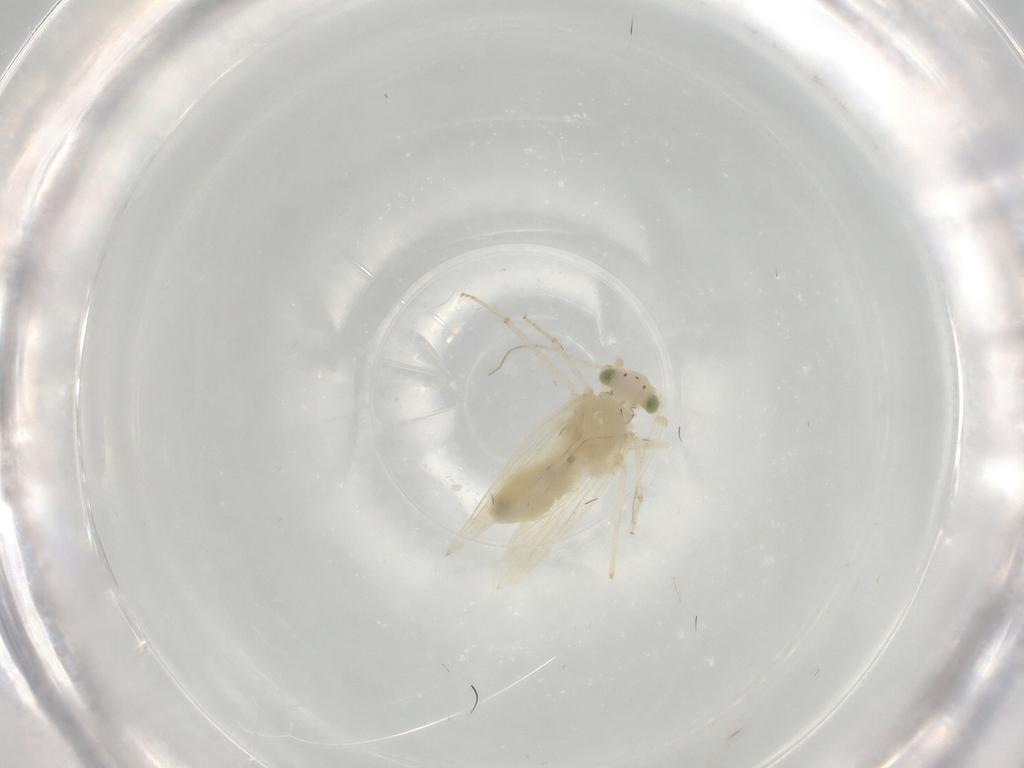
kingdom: Animalia
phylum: Arthropoda
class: Insecta
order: Psocodea
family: Lepidopsocidae
